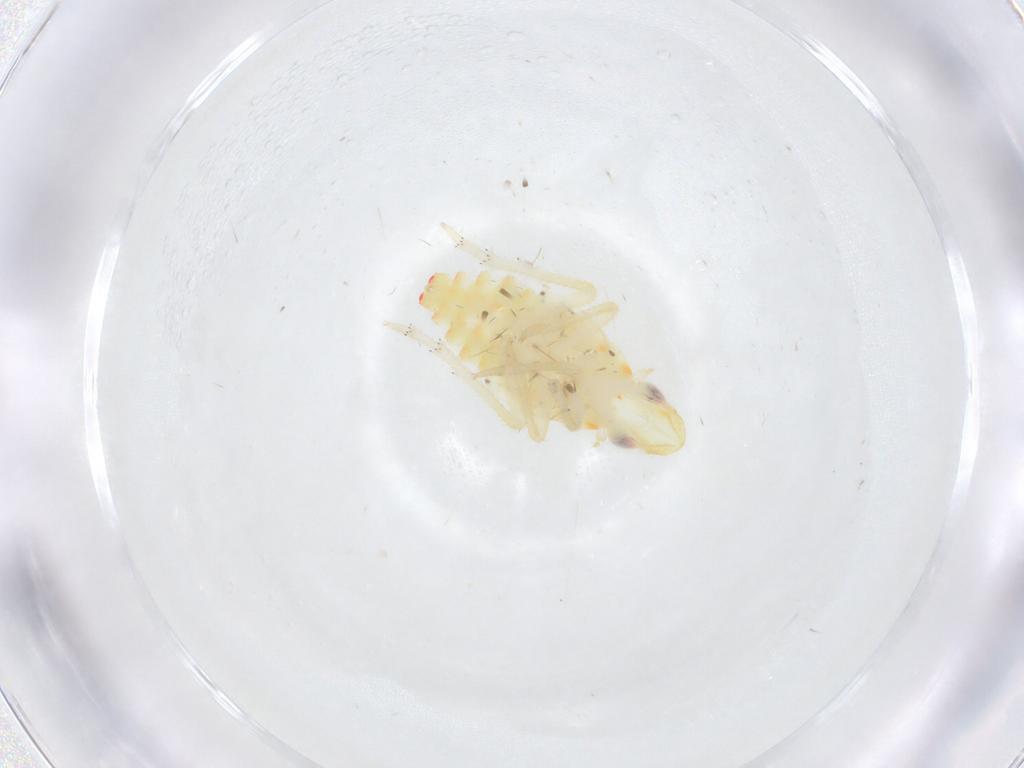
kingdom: Animalia
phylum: Arthropoda
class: Insecta
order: Hemiptera
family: Tropiduchidae
